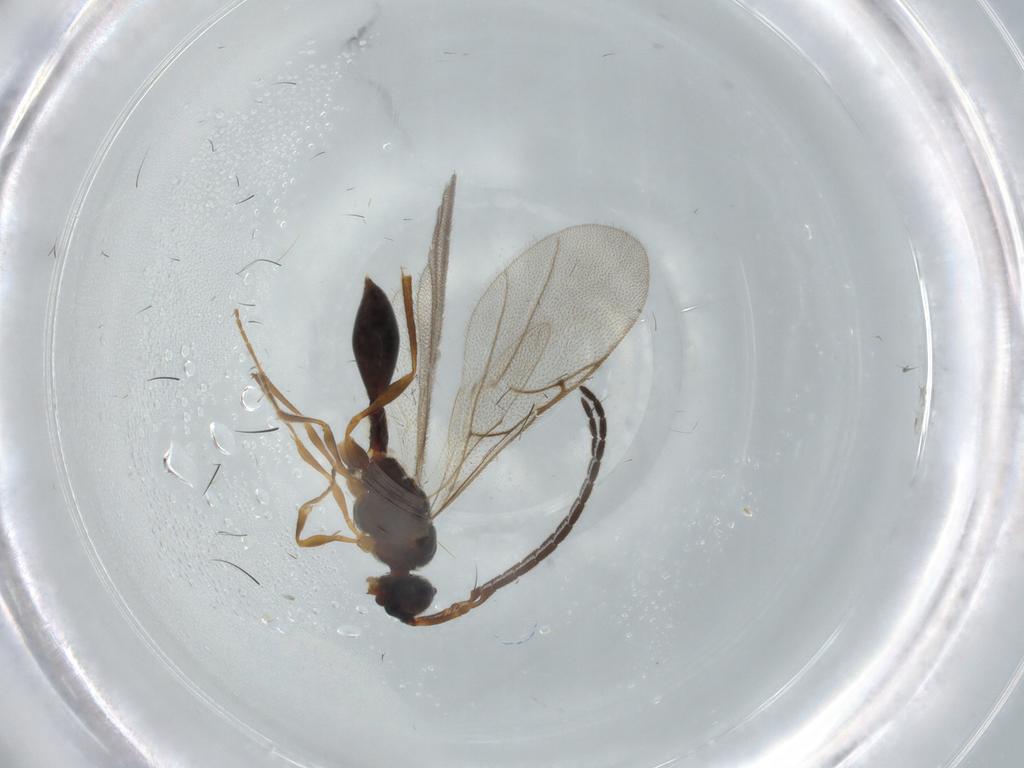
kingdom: Animalia
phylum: Arthropoda
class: Insecta
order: Hymenoptera
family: Braconidae
